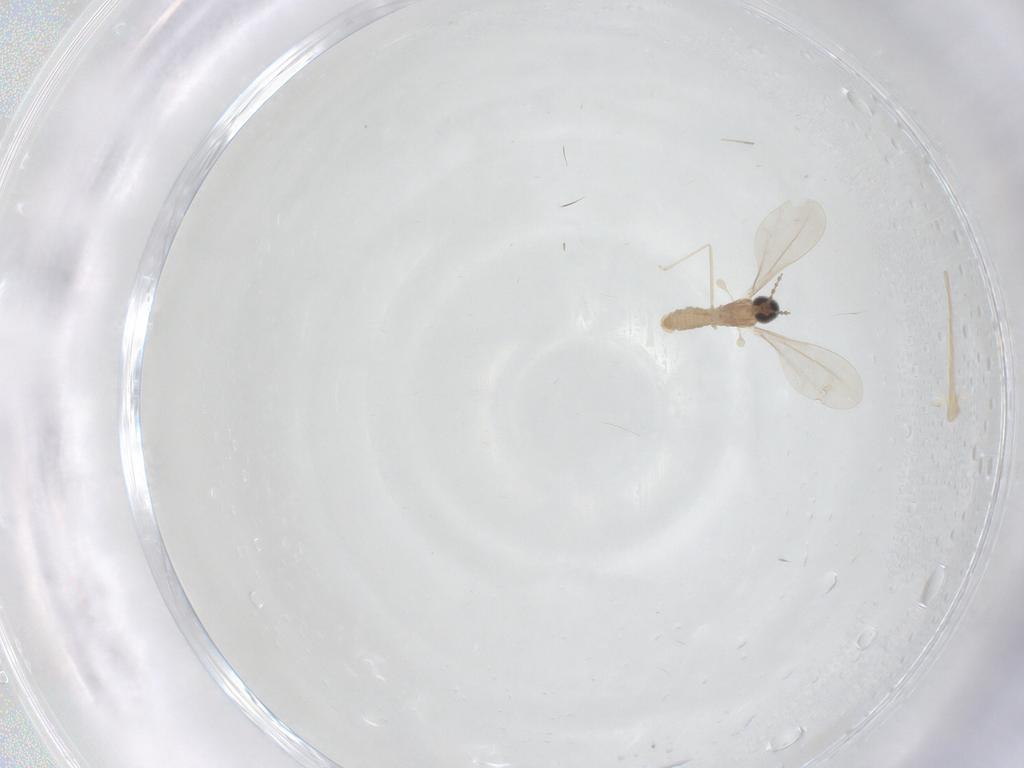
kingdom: Animalia
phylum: Arthropoda
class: Insecta
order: Diptera
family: Cecidomyiidae
